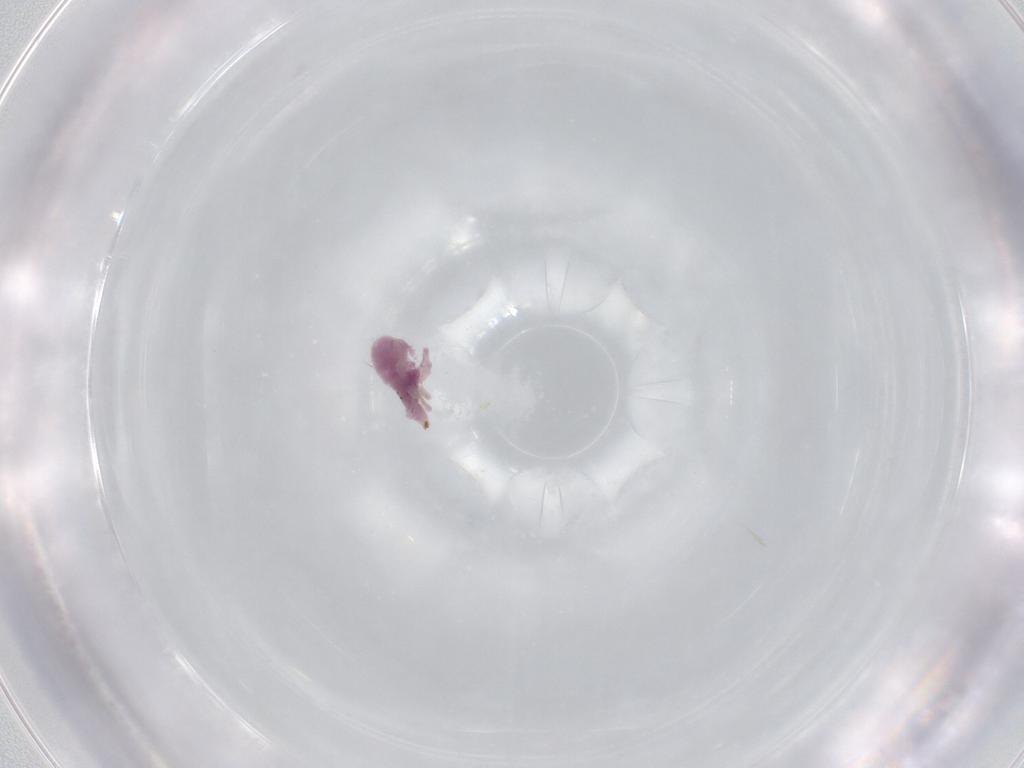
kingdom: Animalia
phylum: Arthropoda
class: Arachnida
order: Trombidiformes
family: Bdellidae
